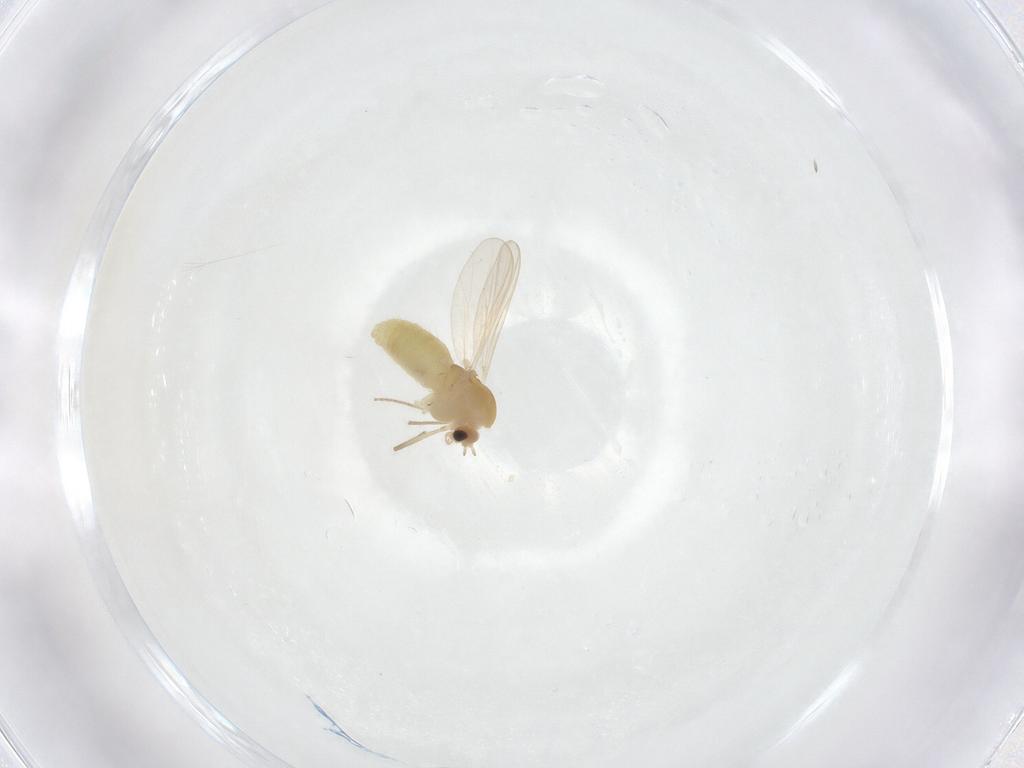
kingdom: Animalia
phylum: Arthropoda
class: Insecta
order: Diptera
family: Chironomidae
